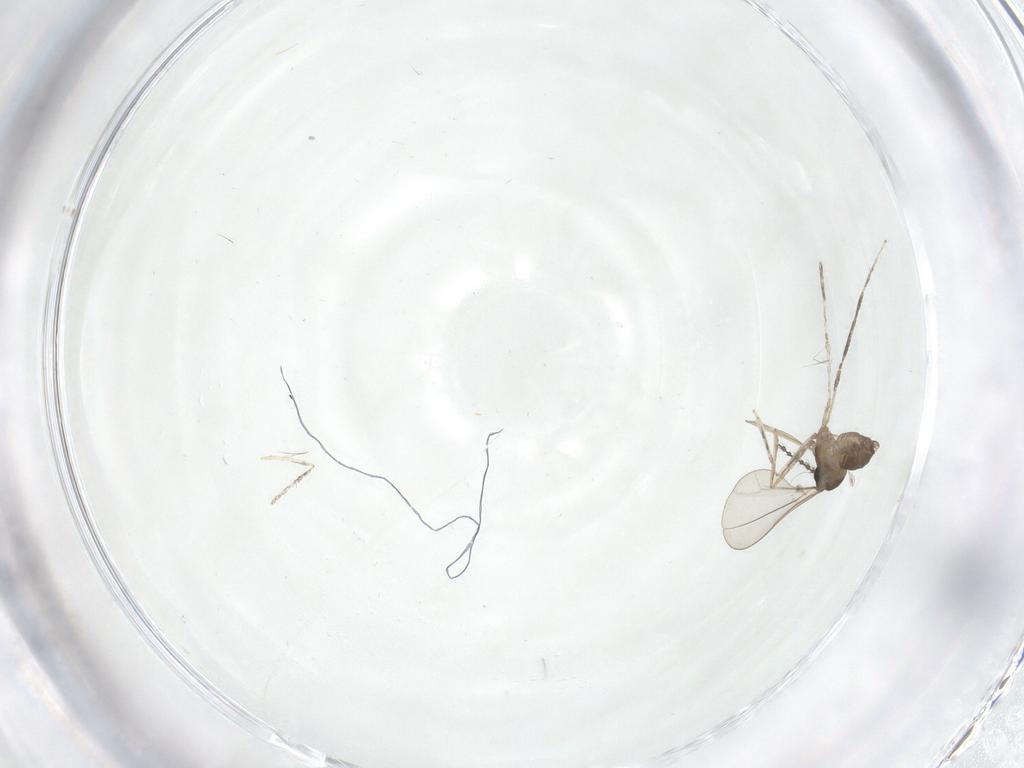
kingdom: Animalia
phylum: Arthropoda
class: Insecta
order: Diptera
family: Cecidomyiidae
